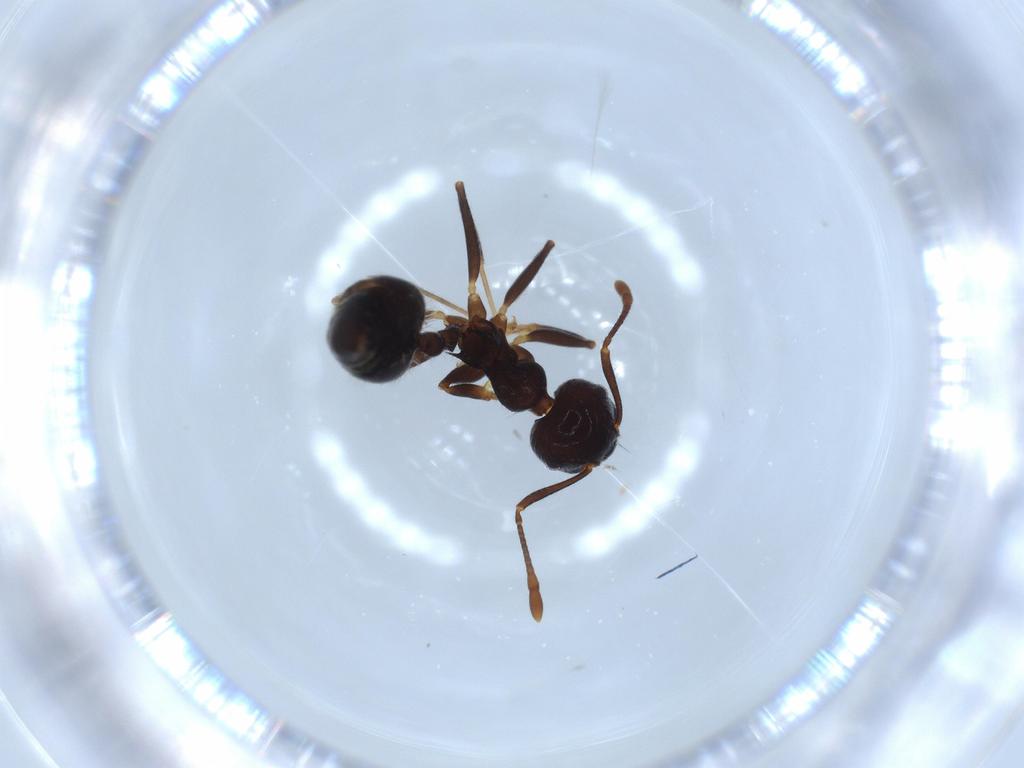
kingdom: Animalia
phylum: Arthropoda
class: Insecta
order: Hymenoptera
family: Formicidae
